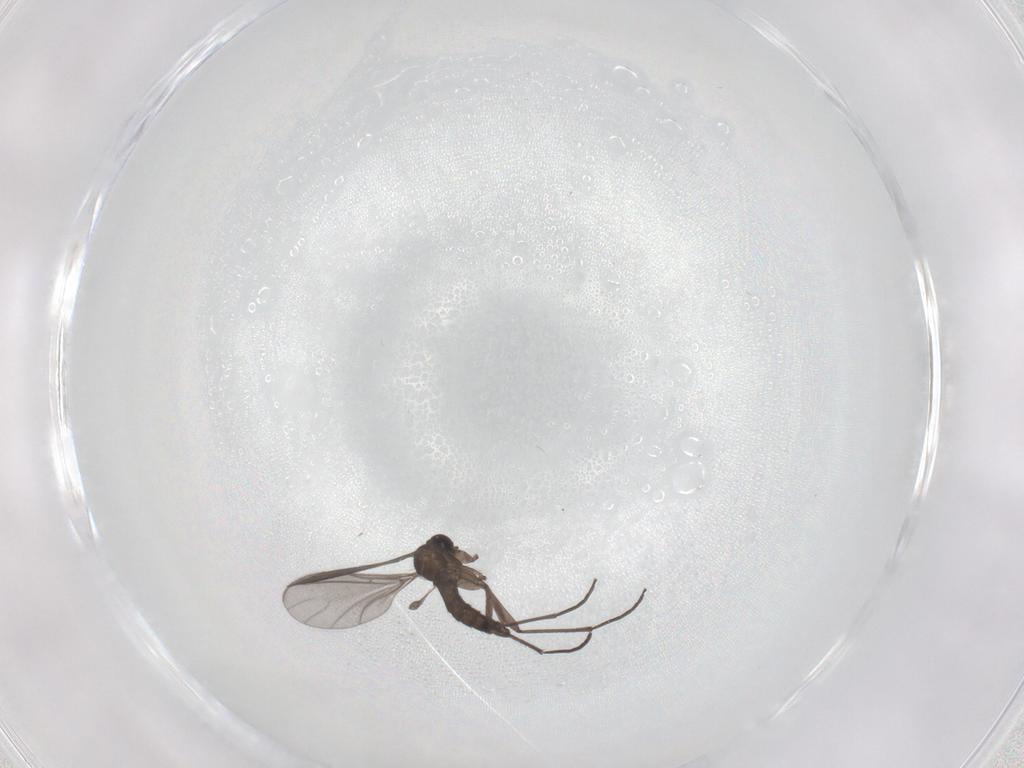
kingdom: Animalia
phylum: Arthropoda
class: Insecta
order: Diptera
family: Sciaridae
